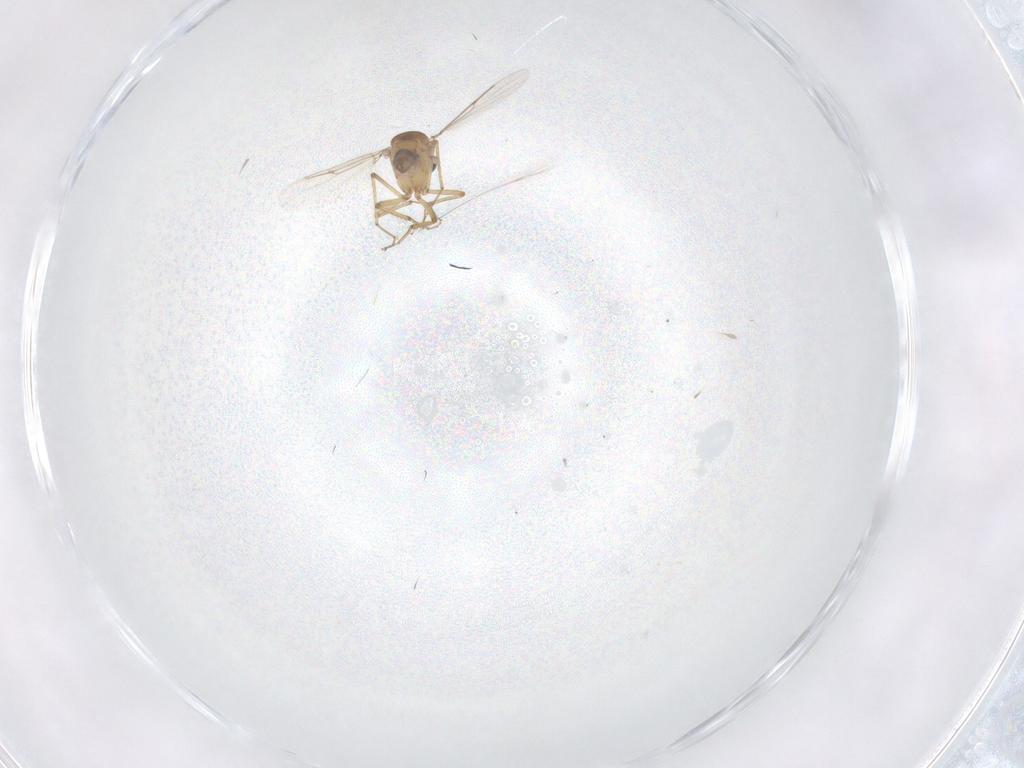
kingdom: Animalia
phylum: Arthropoda
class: Insecta
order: Diptera
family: Ceratopogonidae
